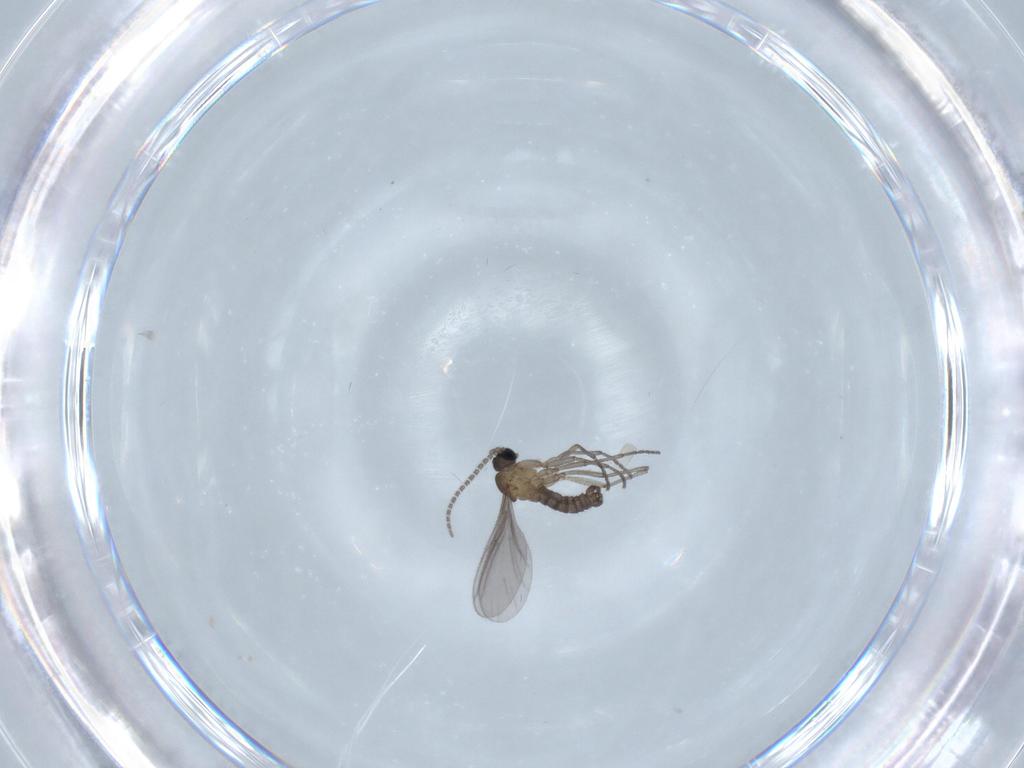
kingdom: Animalia
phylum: Arthropoda
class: Insecta
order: Diptera
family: Sciaridae
